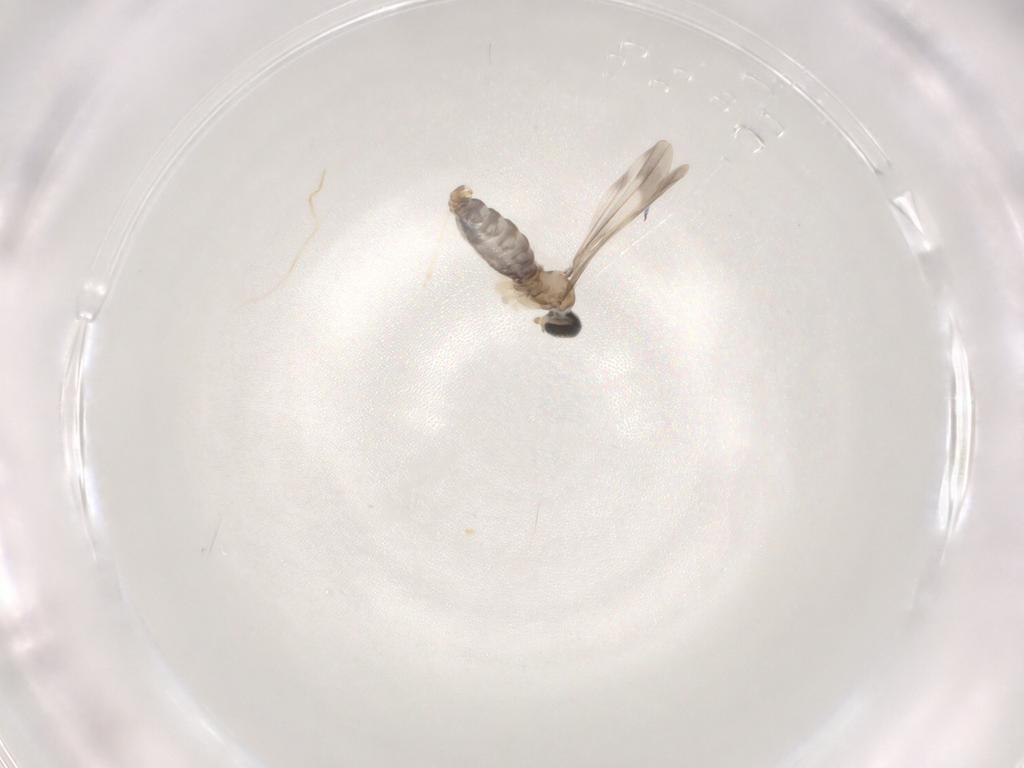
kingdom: Animalia
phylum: Arthropoda
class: Insecta
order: Diptera
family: Cecidomyiidae
